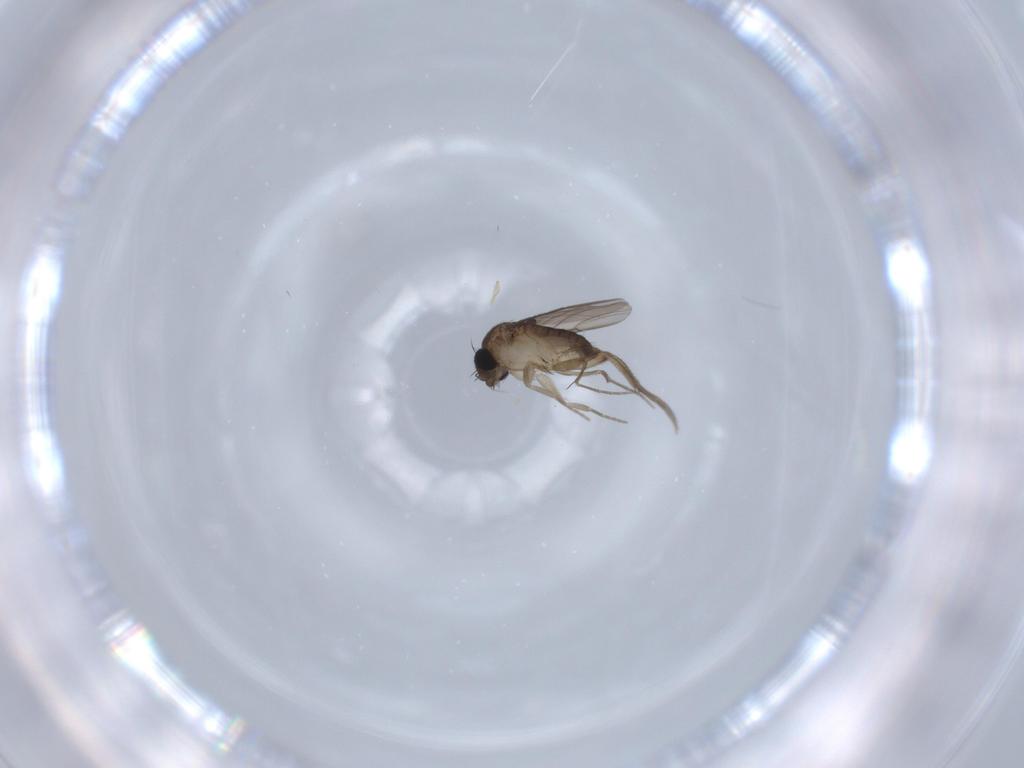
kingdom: Animalia
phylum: Arthropoda
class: Insecta
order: Diptera
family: Phoridae
